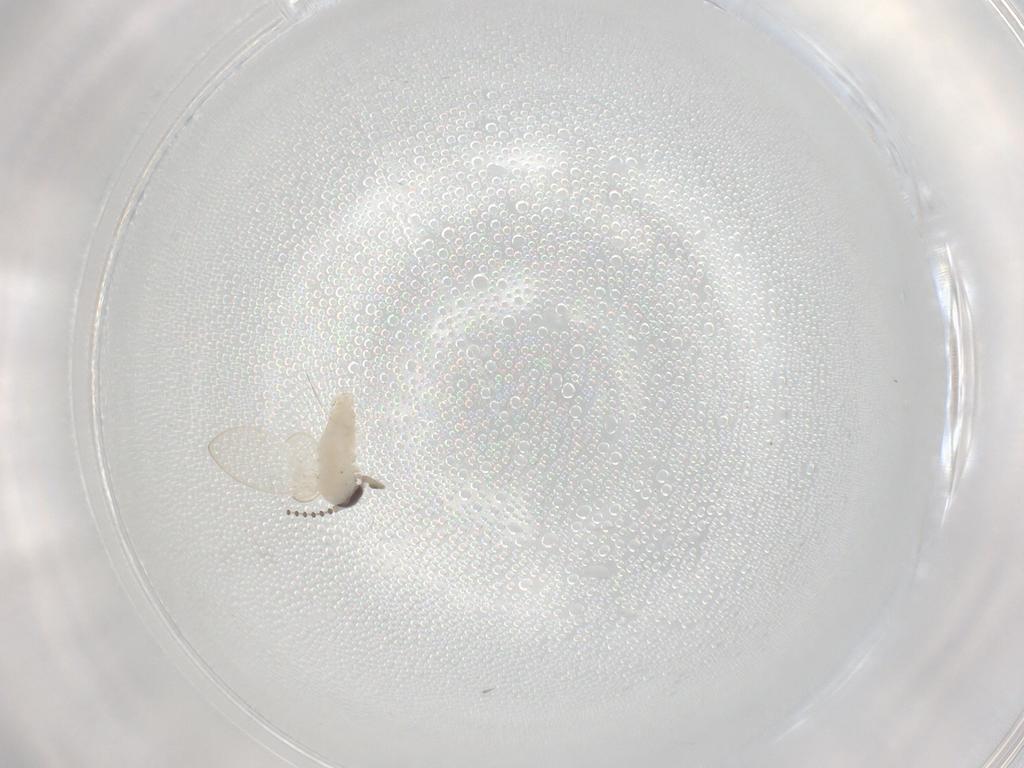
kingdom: Animalia
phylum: Arthropoda
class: Insecta
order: Diptera
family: Psychodidae
